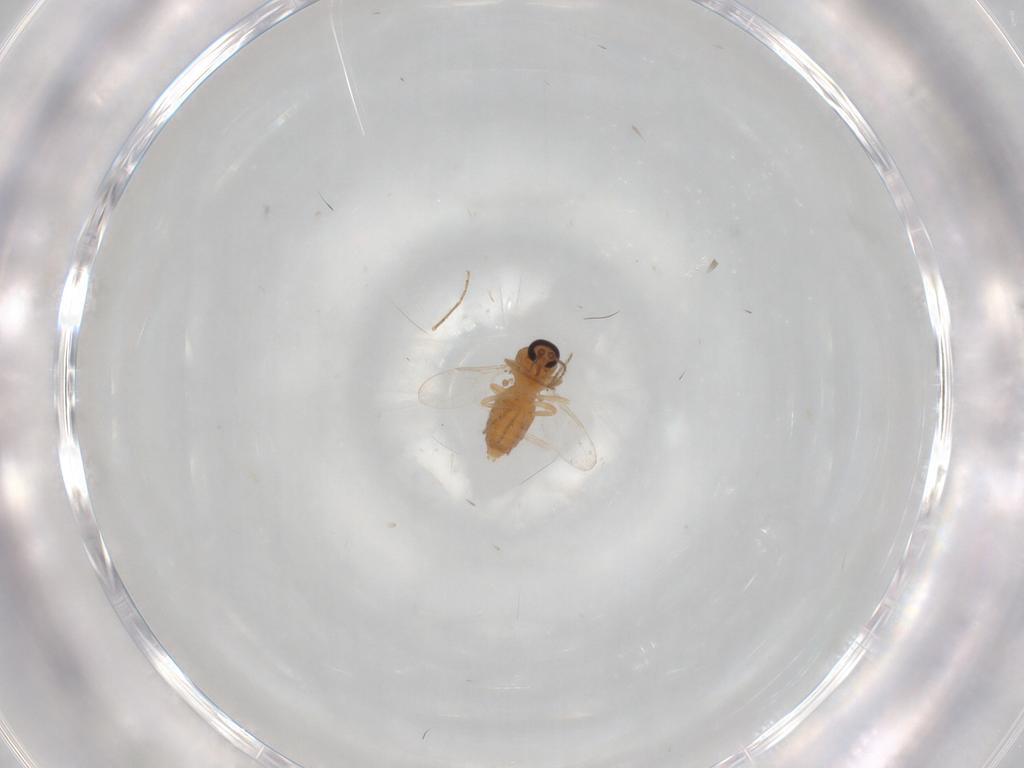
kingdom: Animalia
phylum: Arthropoda
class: Insecta
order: Diptera
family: Ceratopogonidae
